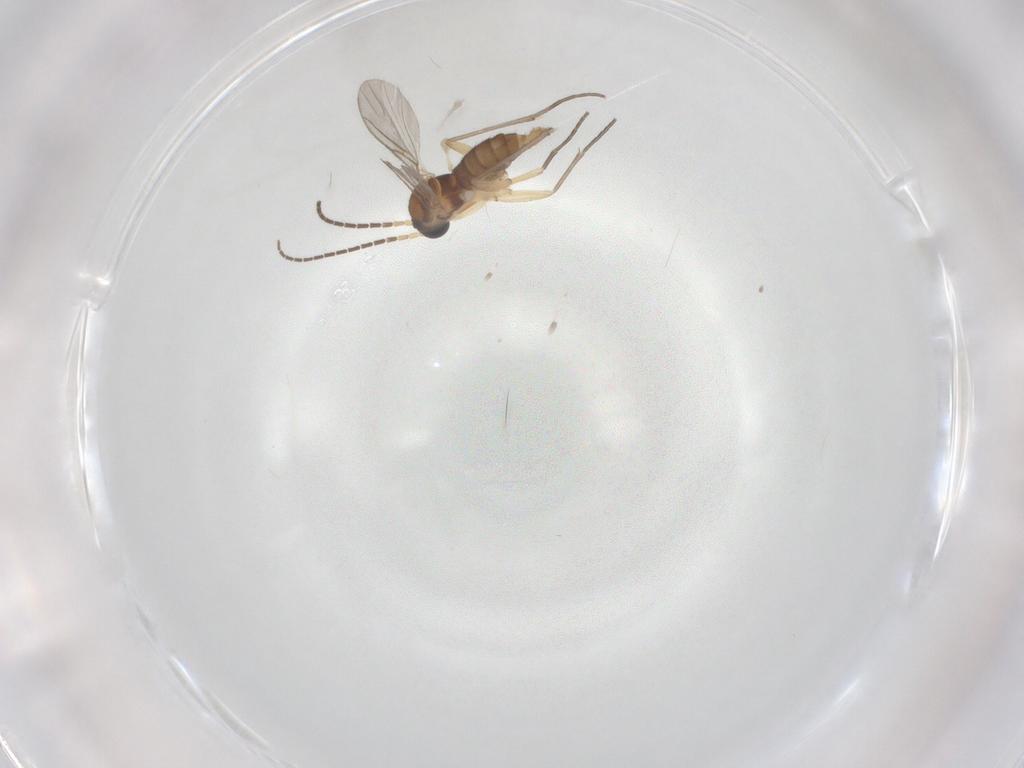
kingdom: Animalia
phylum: Arthropoda
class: Insecta
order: Diptera
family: Sciaridae
